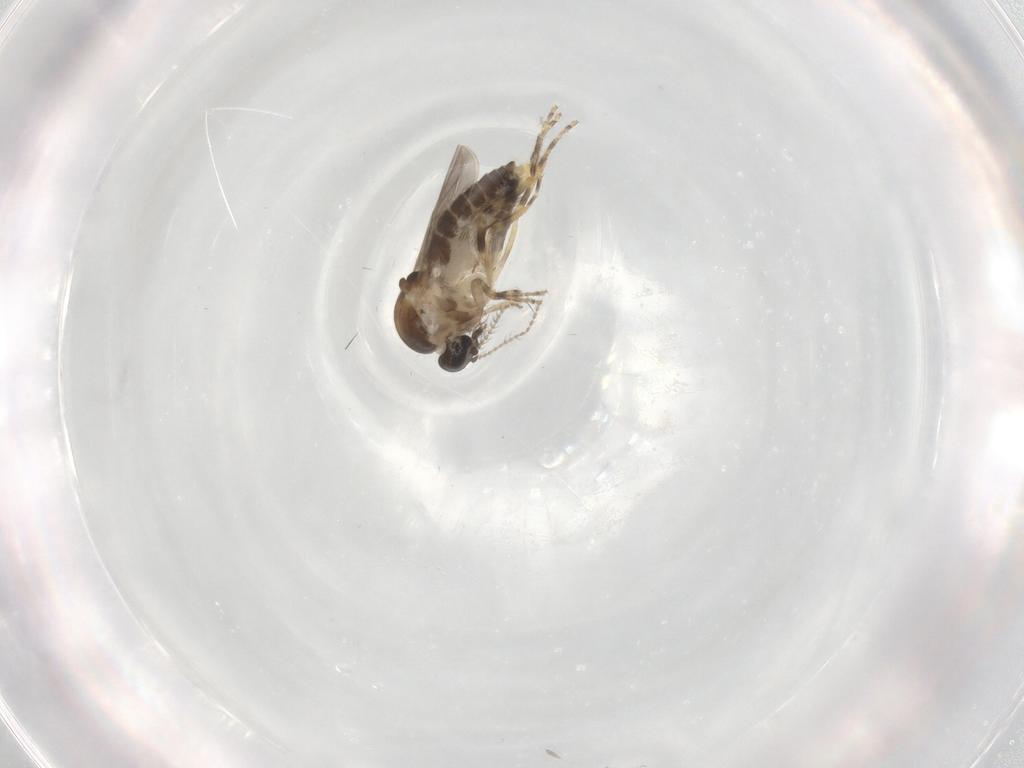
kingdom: Animalia
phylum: Arthropoda
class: Insecta
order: Diptera
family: Ceratopogonidae
